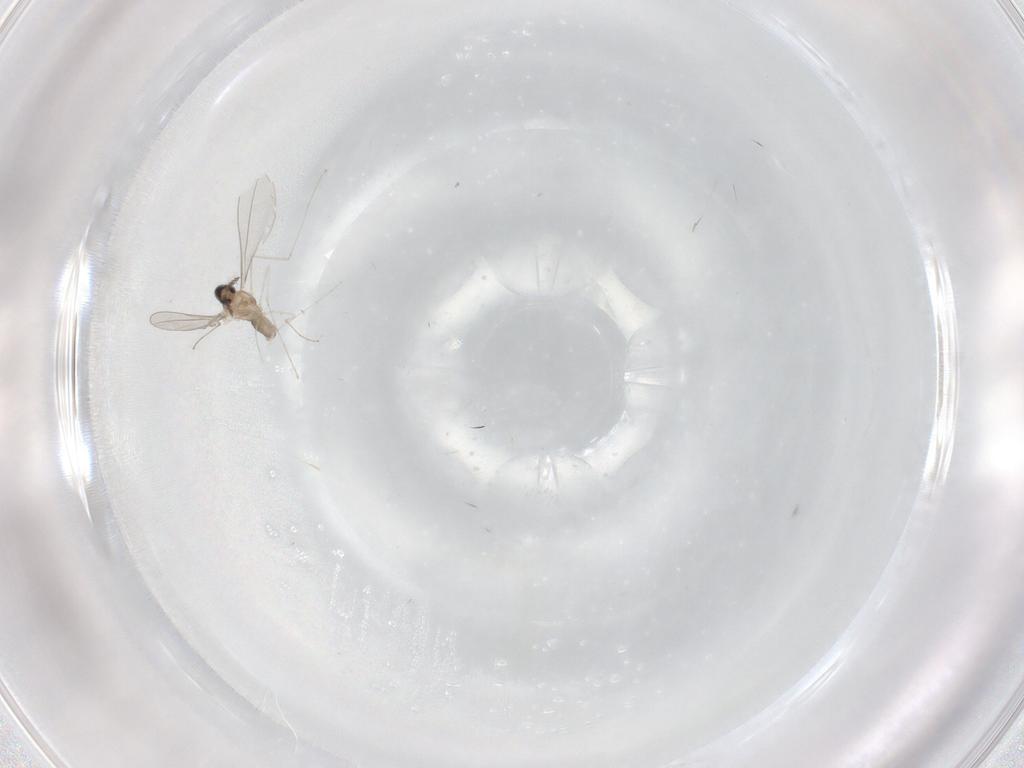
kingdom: Animalia
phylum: Arthropoda
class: Insecta
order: Diptera
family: Cecidomyiidae
